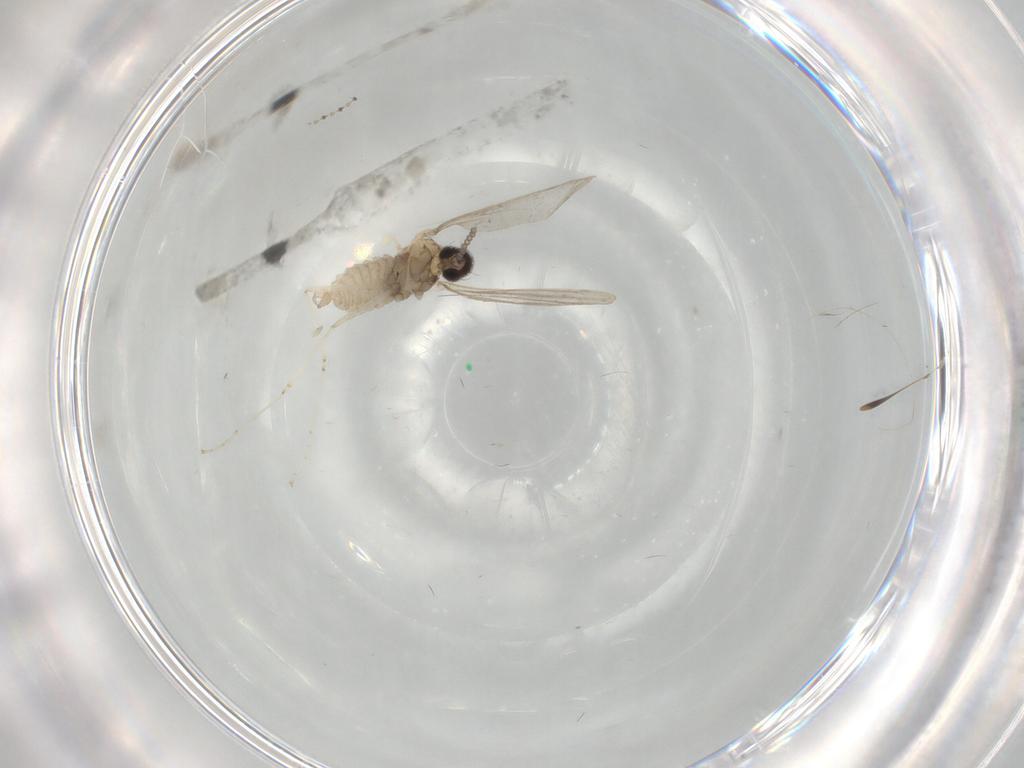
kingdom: Animalia
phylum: Arthropoda
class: Insecta
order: Diptera
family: Cecidomyiidae
